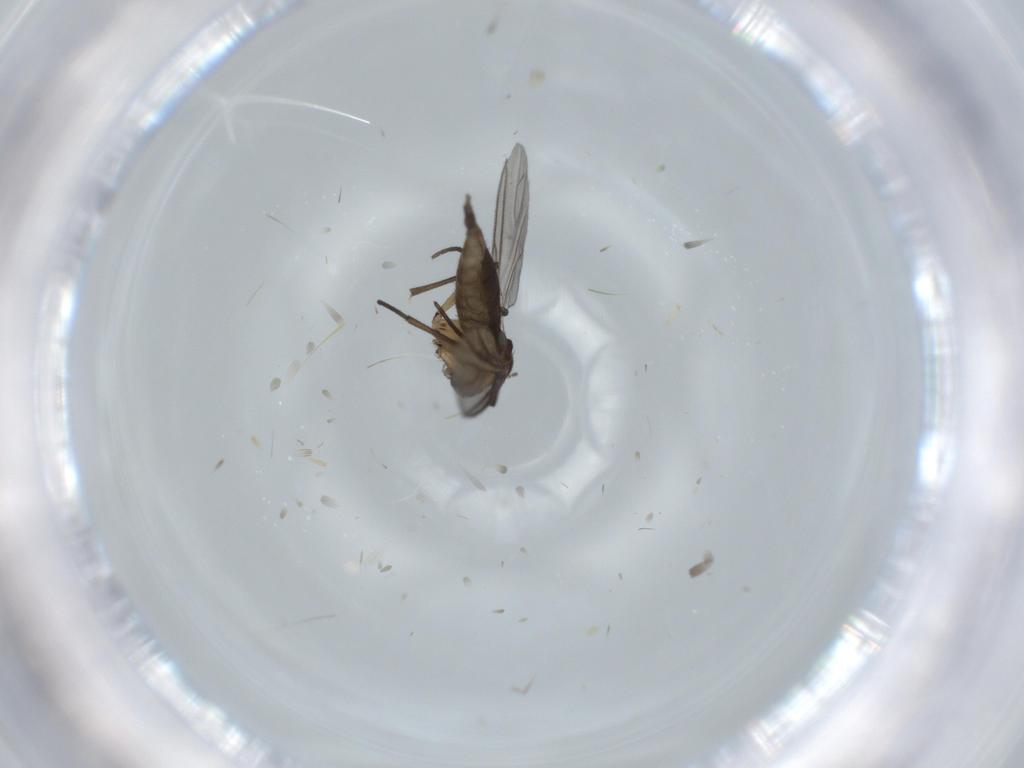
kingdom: Animalia
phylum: Arthropoda
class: Insecta
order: Diptera
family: Sciaridae
